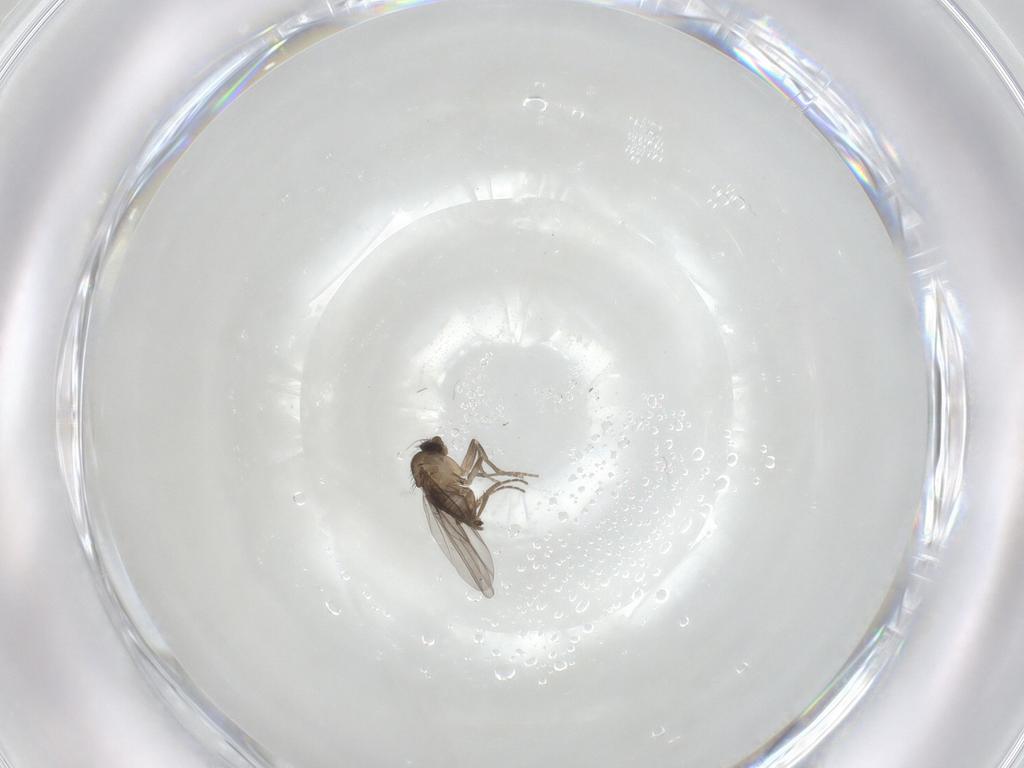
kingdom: Animalia
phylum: Arthropoda
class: Insecta
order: Diptera
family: Phoridae
